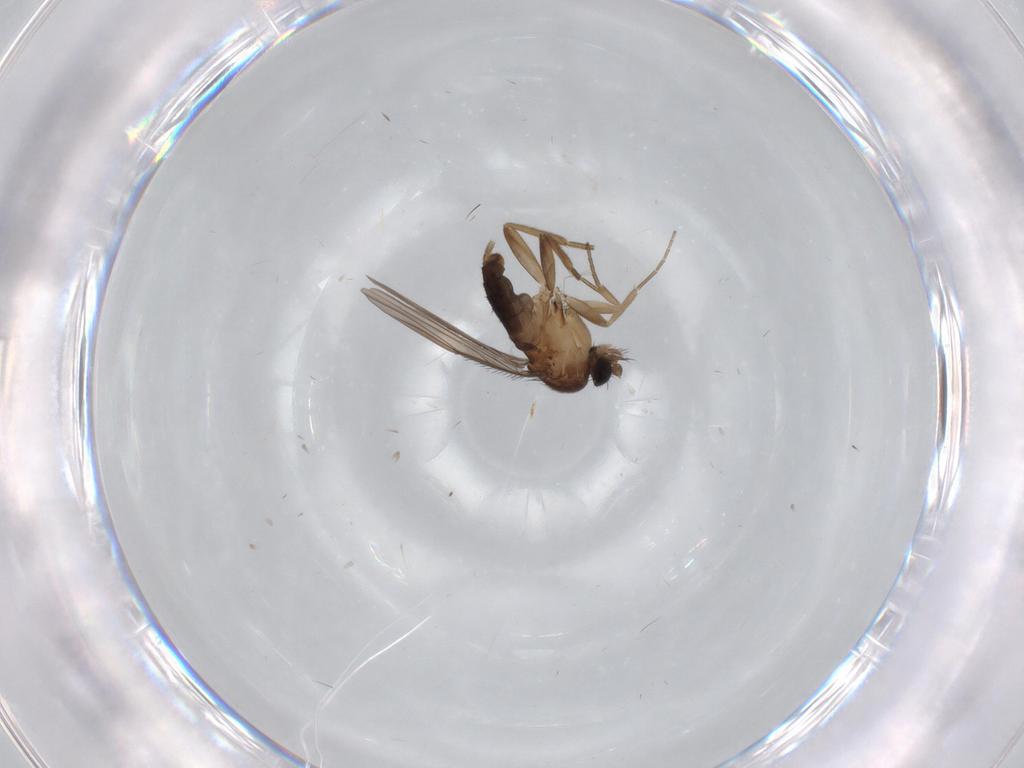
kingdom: Animalia
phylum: Arthropoda
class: Insecta
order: Diptera
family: Phoridae
